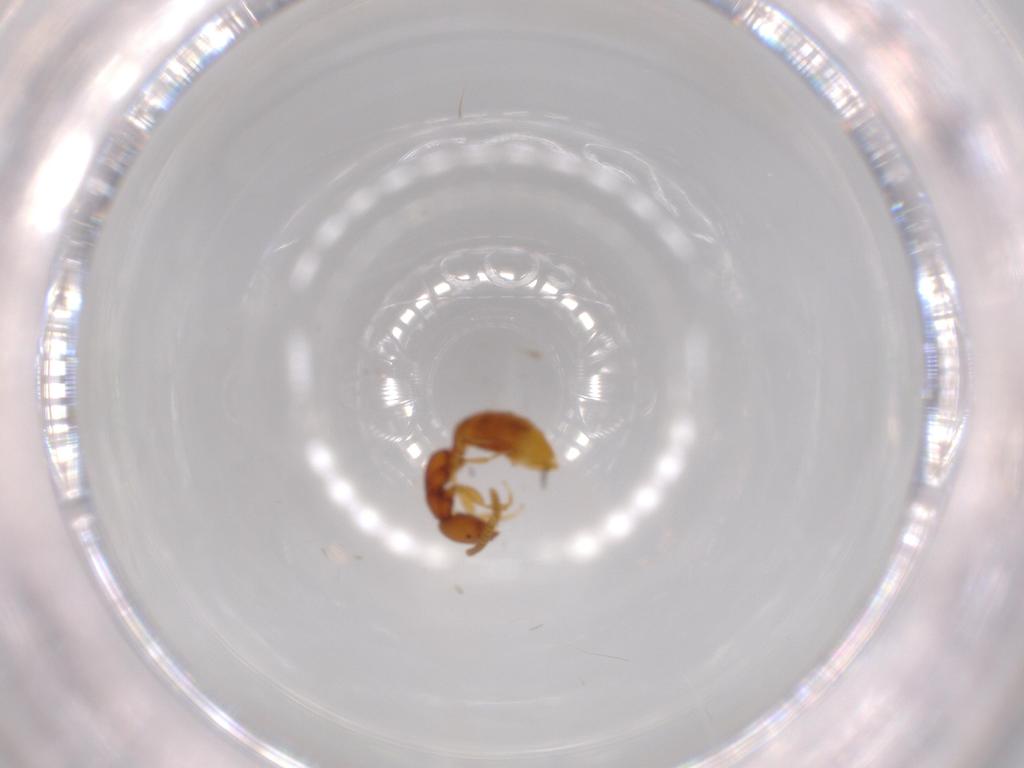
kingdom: Animalia
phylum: Arthropoda
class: Insecta
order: Hymenoptera
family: Bethylidae
